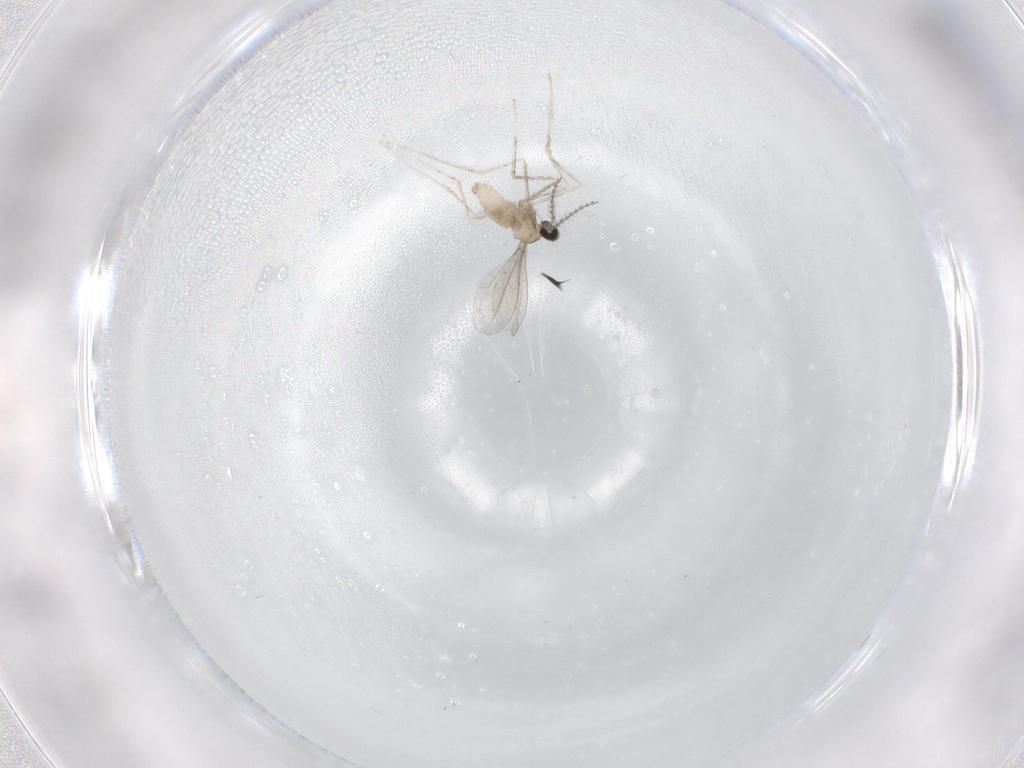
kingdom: Animalia
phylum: Arthropoda
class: Insecta
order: Diptera
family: Cecidomyiidae
